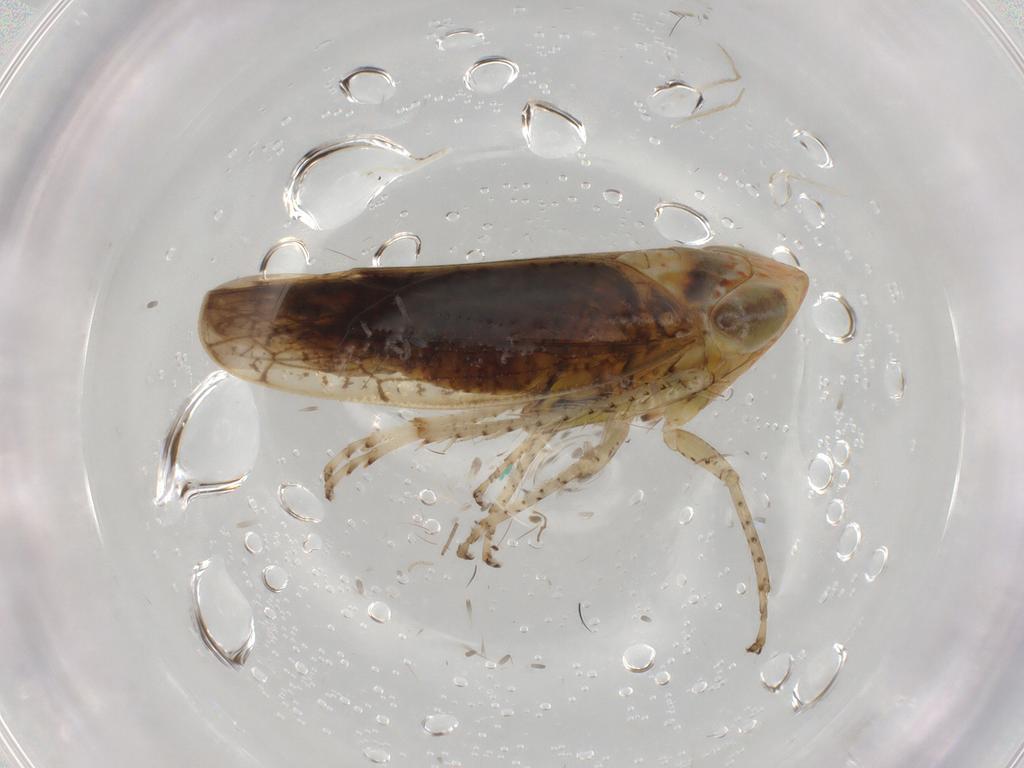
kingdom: Animalia
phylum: Arthropoda
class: Insecta
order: Hemiptera
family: Cicadellidae
